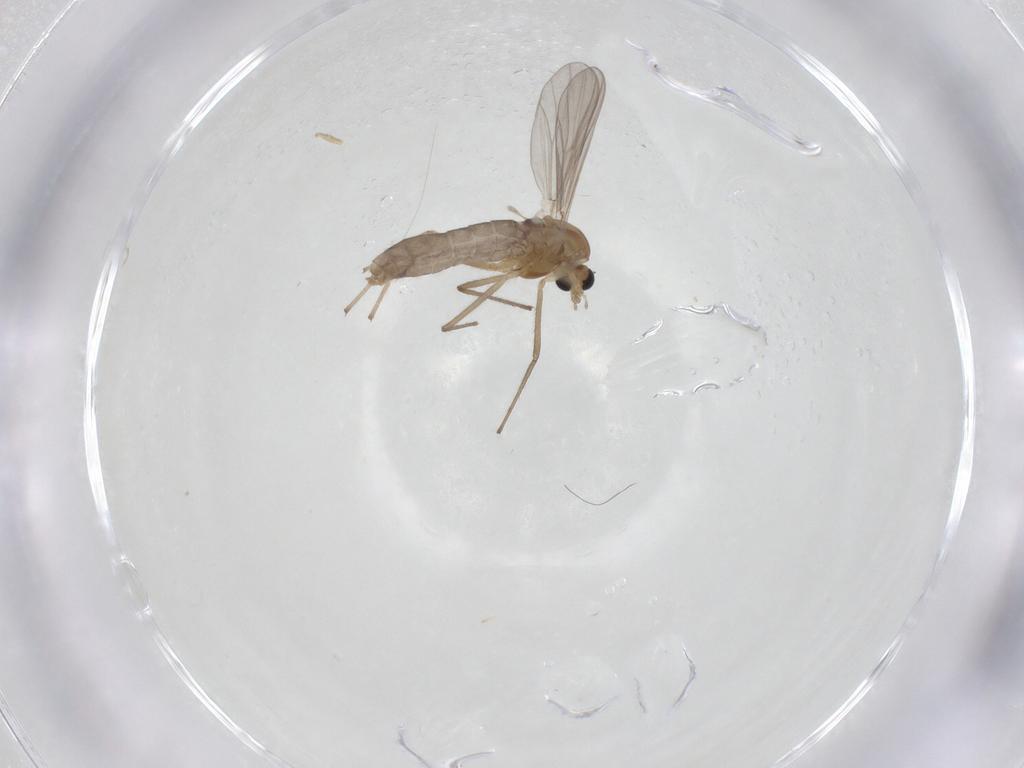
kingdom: Animalia
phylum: Arthropoda
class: Insecta
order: Diptera
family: Chironomidae
